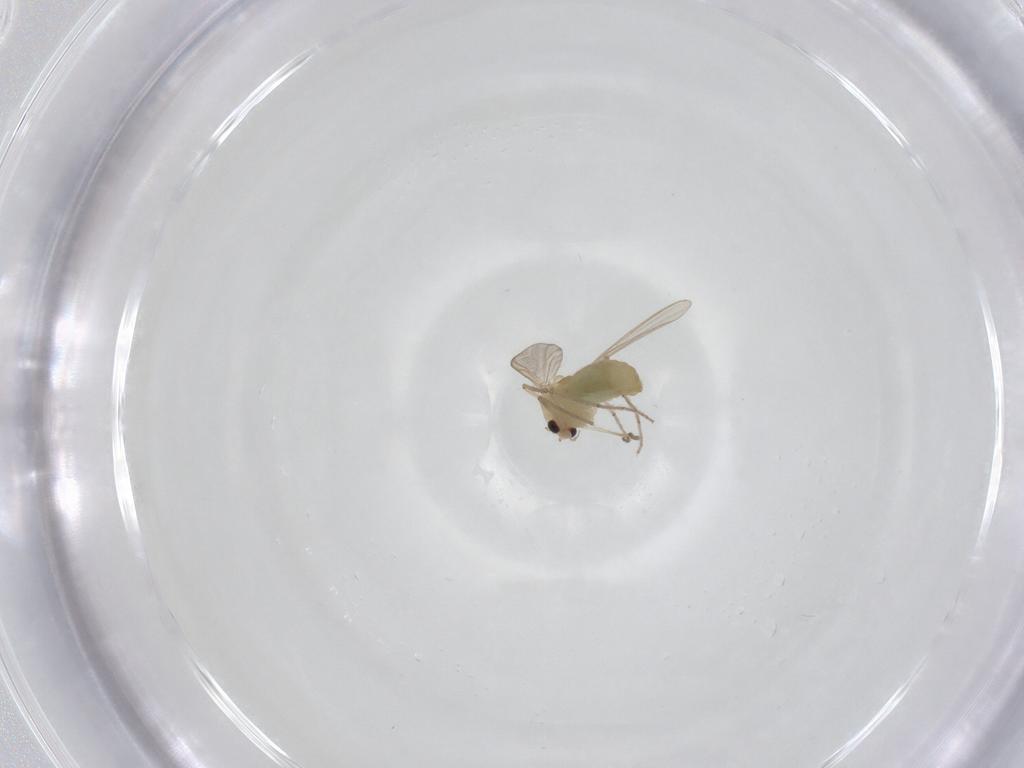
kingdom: Animalia
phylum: Arthropoda
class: Insecta
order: Diptera
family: Chironomidae
